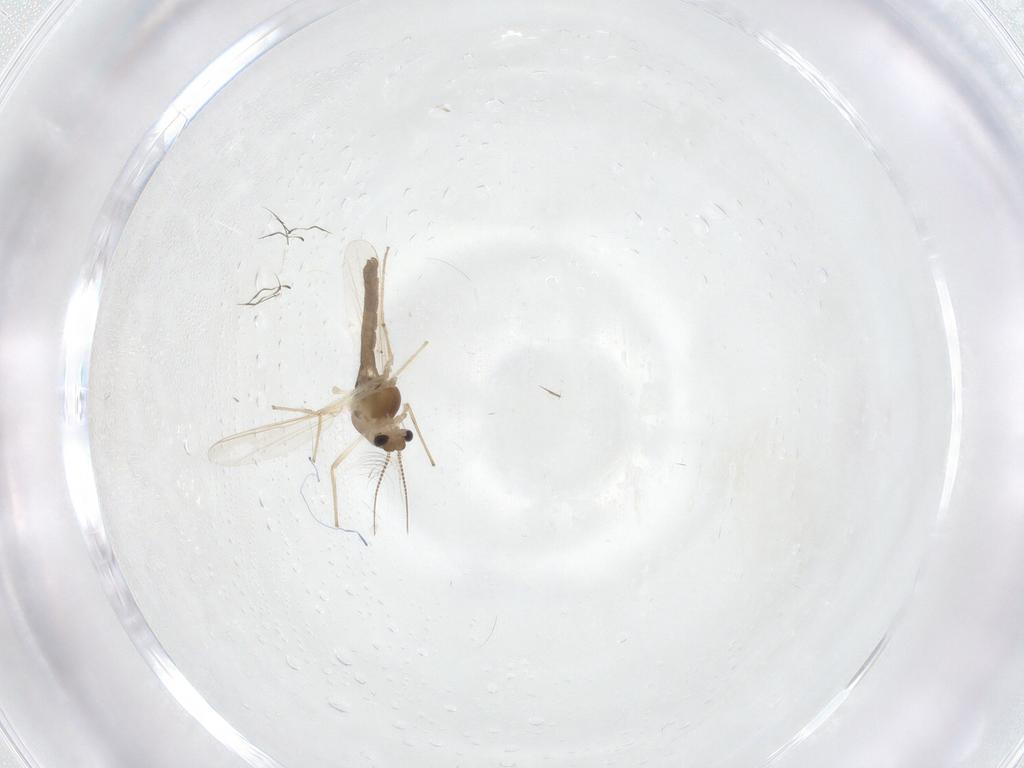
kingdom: Animalia
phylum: Arthropoda
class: Insecta
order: Diptera
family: Chironomidae
